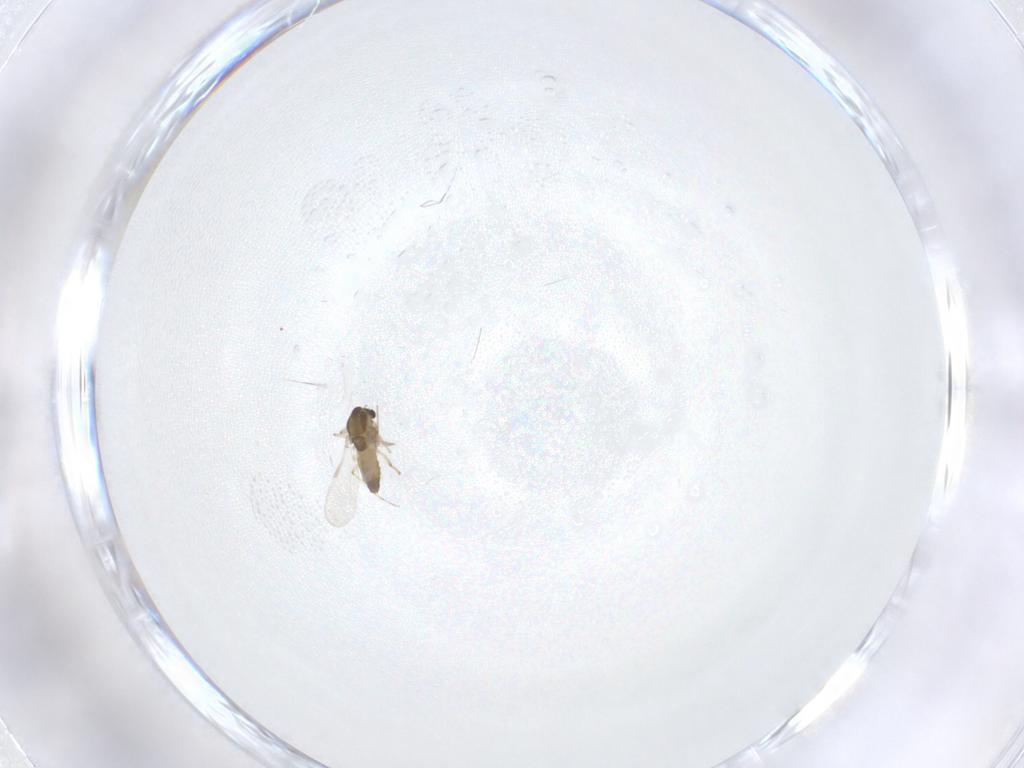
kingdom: Animalia
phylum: Arthropoda
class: Insecta
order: Diptera
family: Chironomidae
